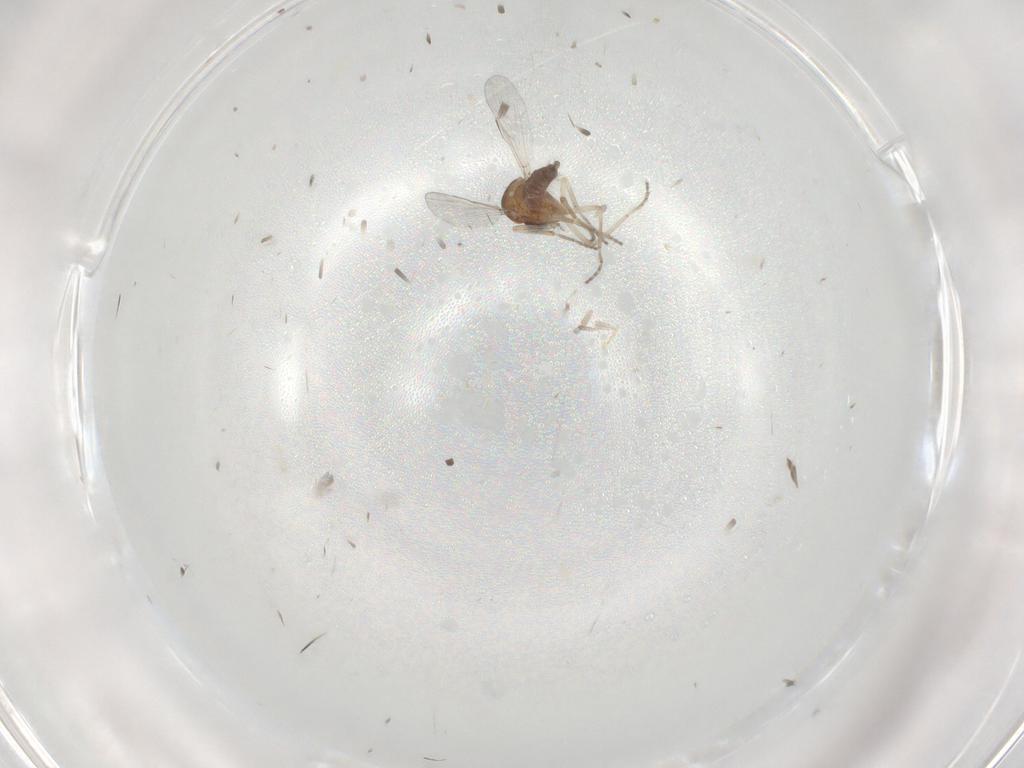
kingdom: Animalia
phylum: Arthropoda
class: Insecta
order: Diptera
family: Ceratopogonidae
